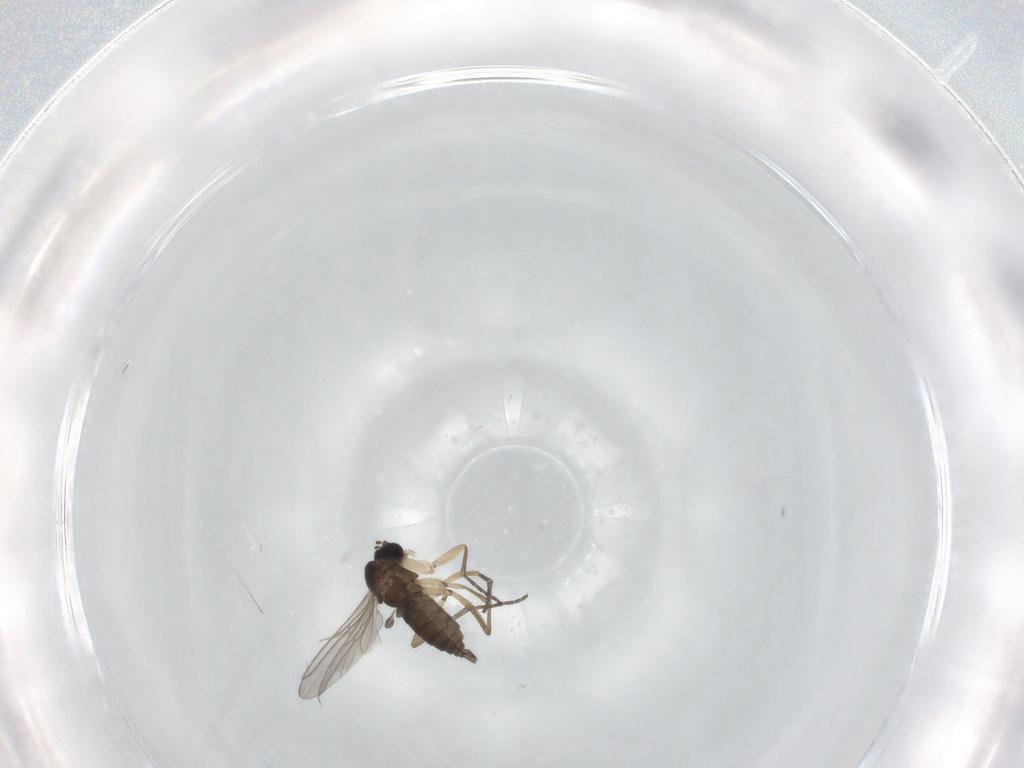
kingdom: Animalia
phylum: Arthropoda
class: Insecta
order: Diptera
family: Sciaridae
